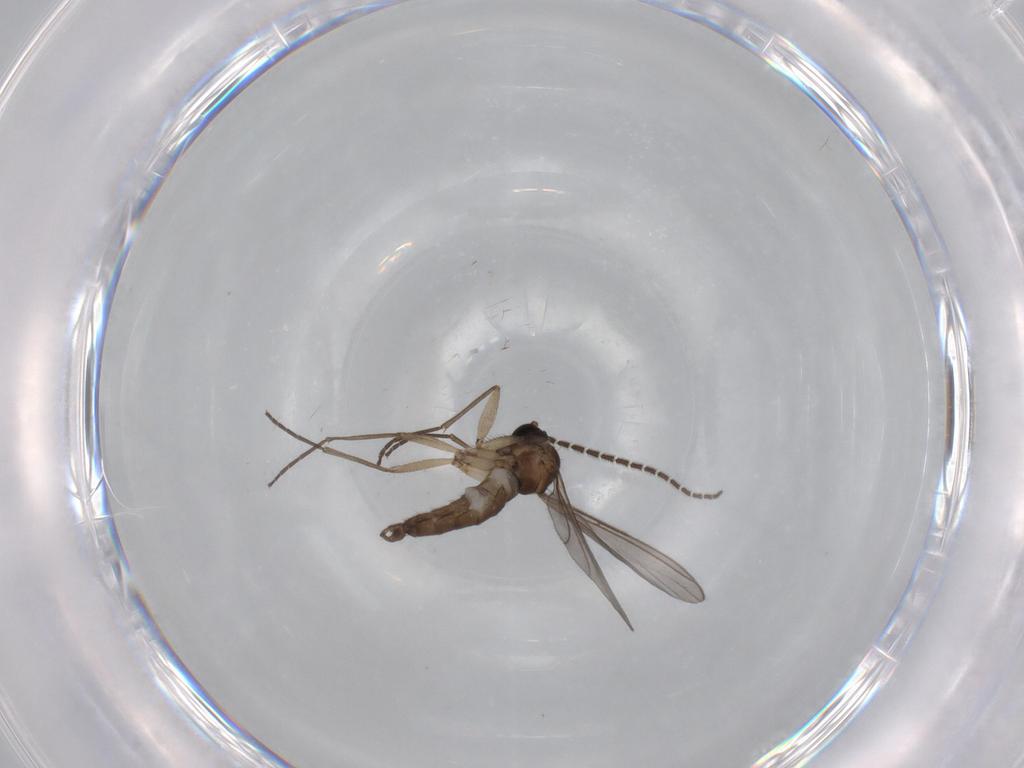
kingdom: Animalia
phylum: Arthropoda
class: Insecta
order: Diptera
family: Sciaridae
